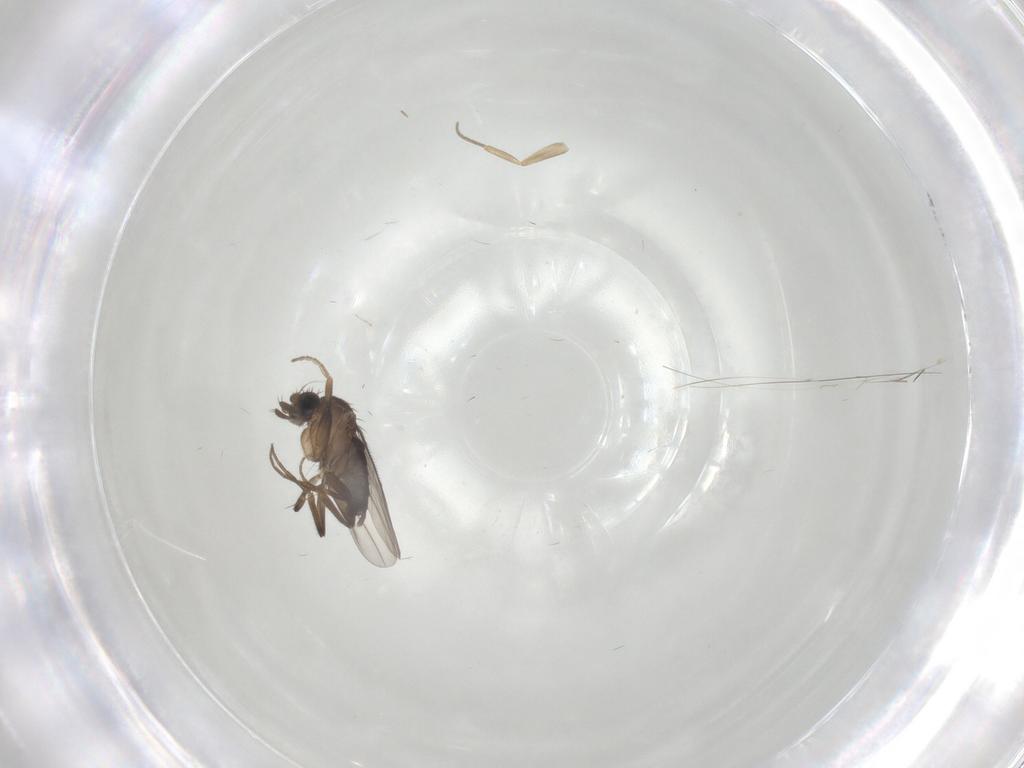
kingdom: Animalia
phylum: Arthropoda
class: Insecta
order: Diptera
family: Phoridae
